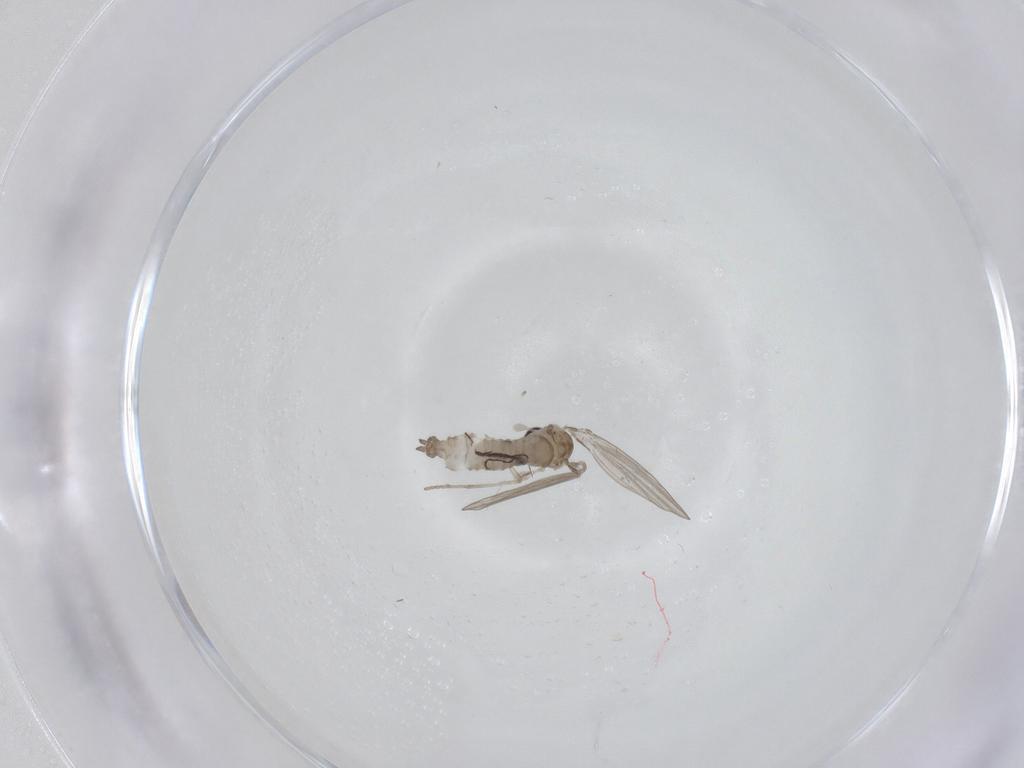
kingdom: Animalia
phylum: Arthropoda
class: Insecta
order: Diptera
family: Psychodidae
